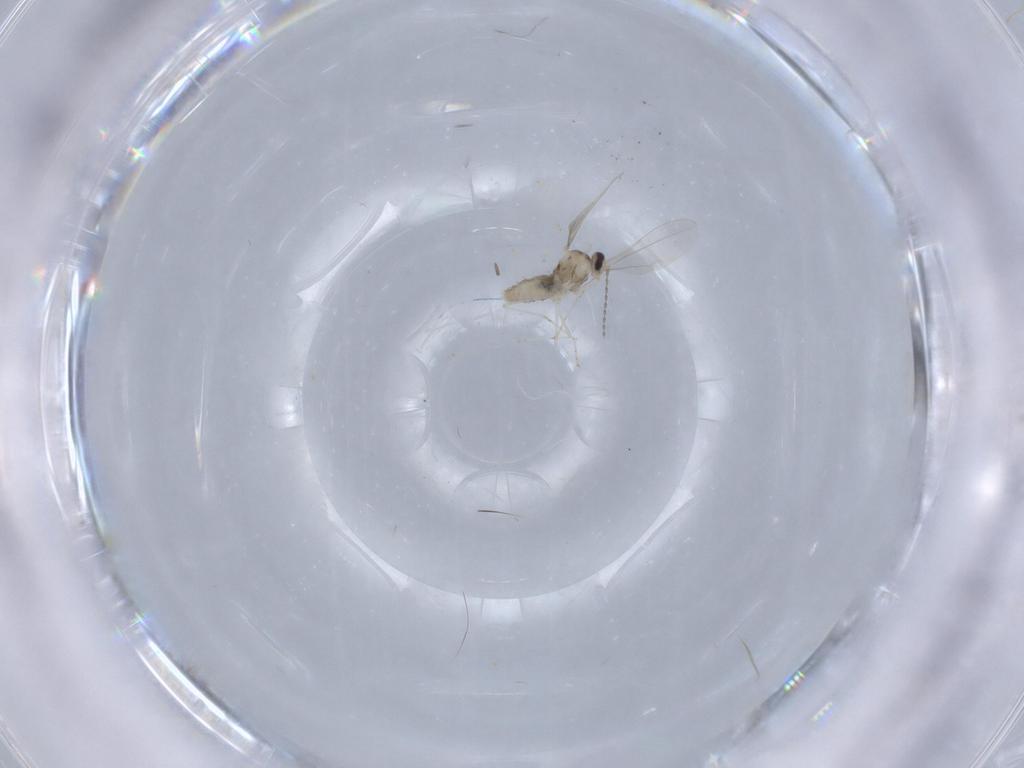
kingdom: Animalia
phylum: Arthropoda
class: Insecta
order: Diptera
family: Cecidomyiidae
